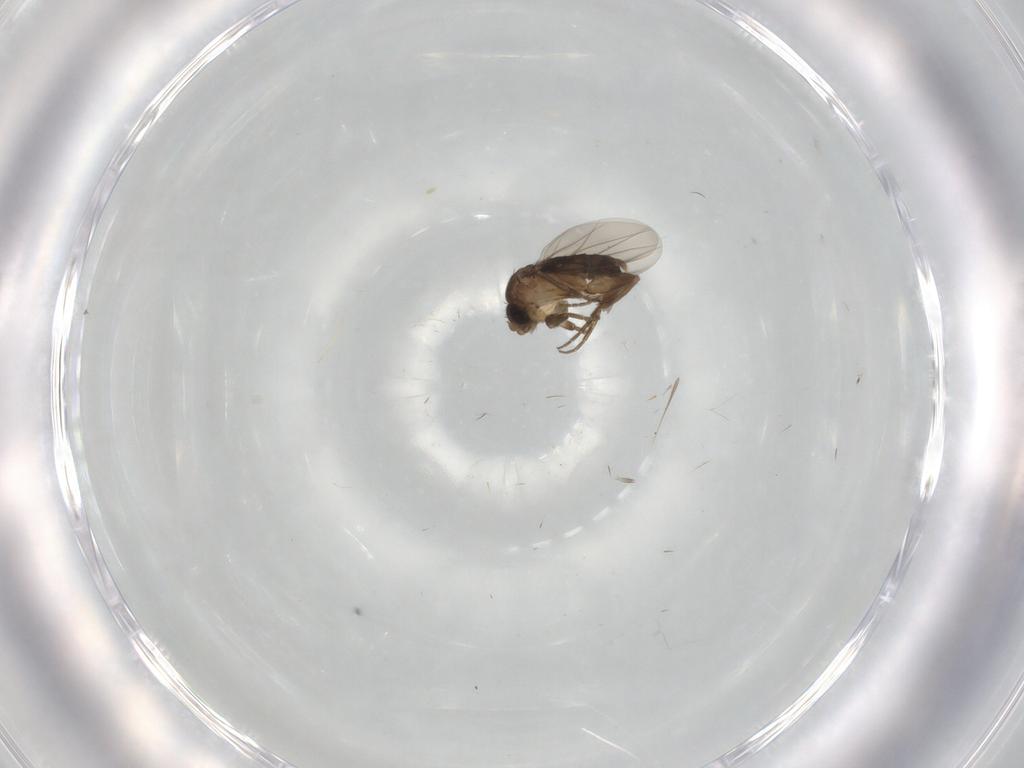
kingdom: Animalia
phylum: Arthropoda
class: Insecta
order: Diptera
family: Phoridae
